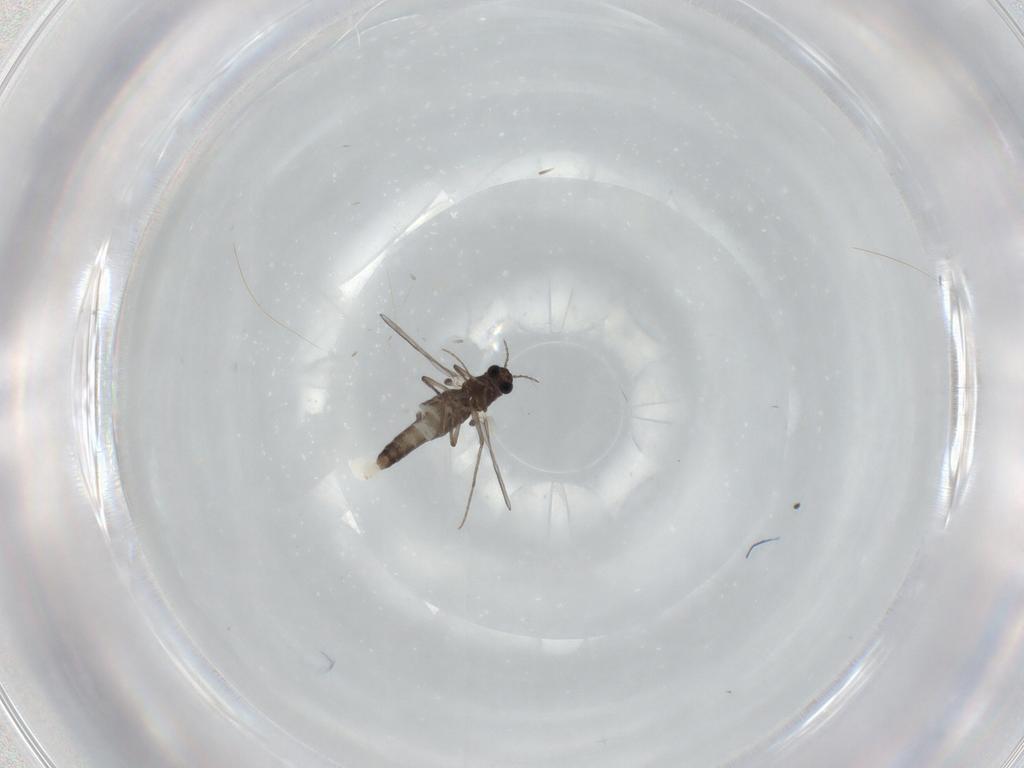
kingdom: Animalia
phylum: Arthropoda
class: Insecta
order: Diptera
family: Chironomidae
